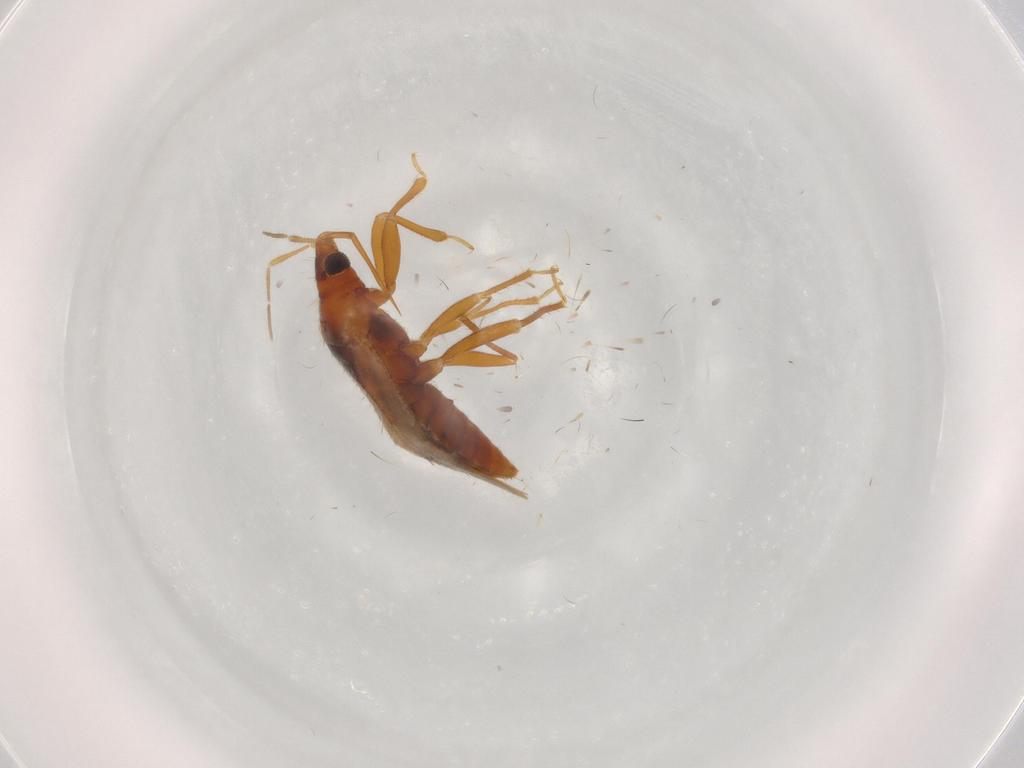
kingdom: Animalia
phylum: Arthropoda
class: Insecta
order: Hemiptera
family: Anthocoridae
